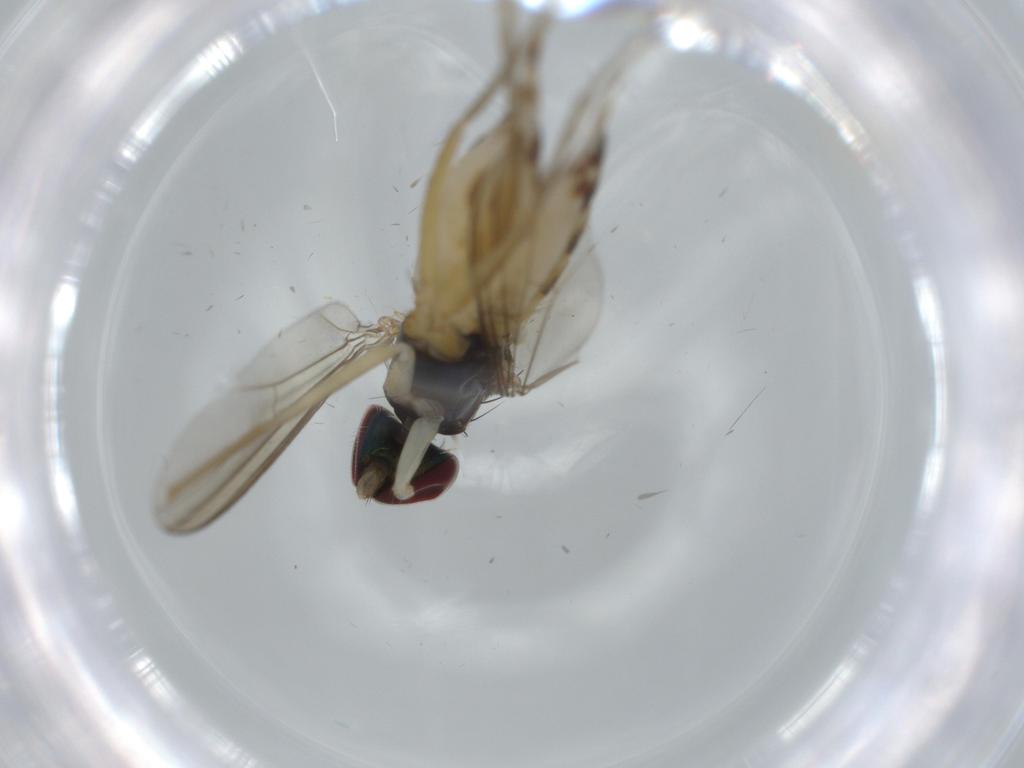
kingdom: Animalia
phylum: Arthropoda
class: Insecta
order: Diptera
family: Dolichopodidae
